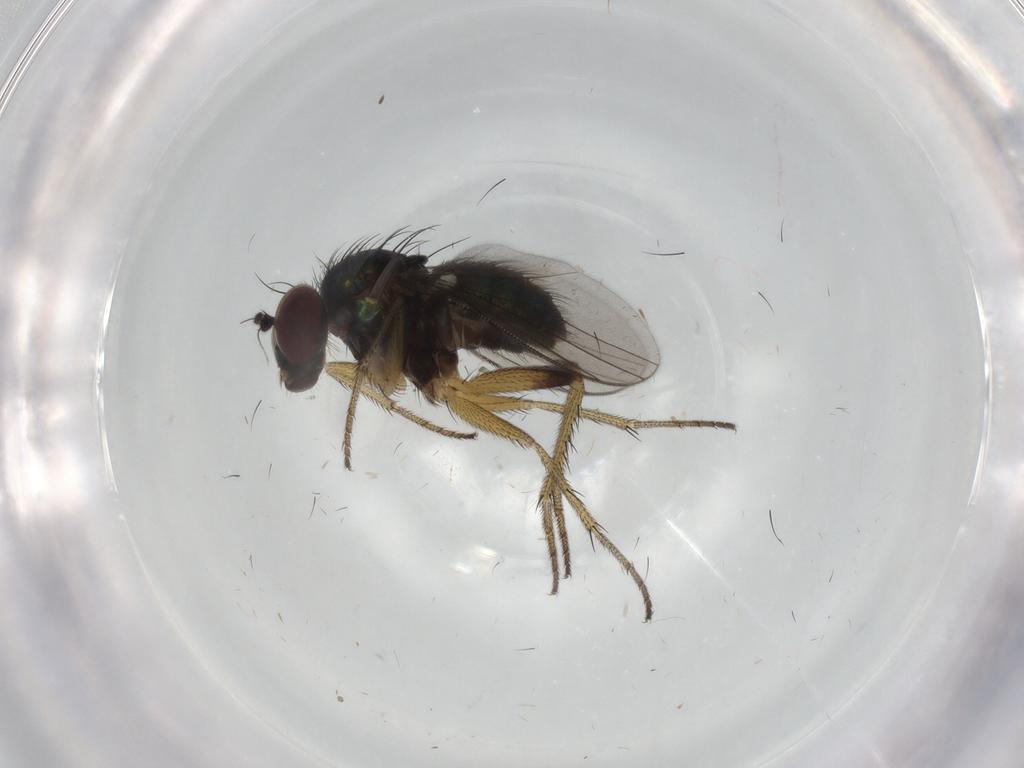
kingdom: Animalia
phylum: Arthropoda
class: Insecta
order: Diptera
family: Dolichopodidae
